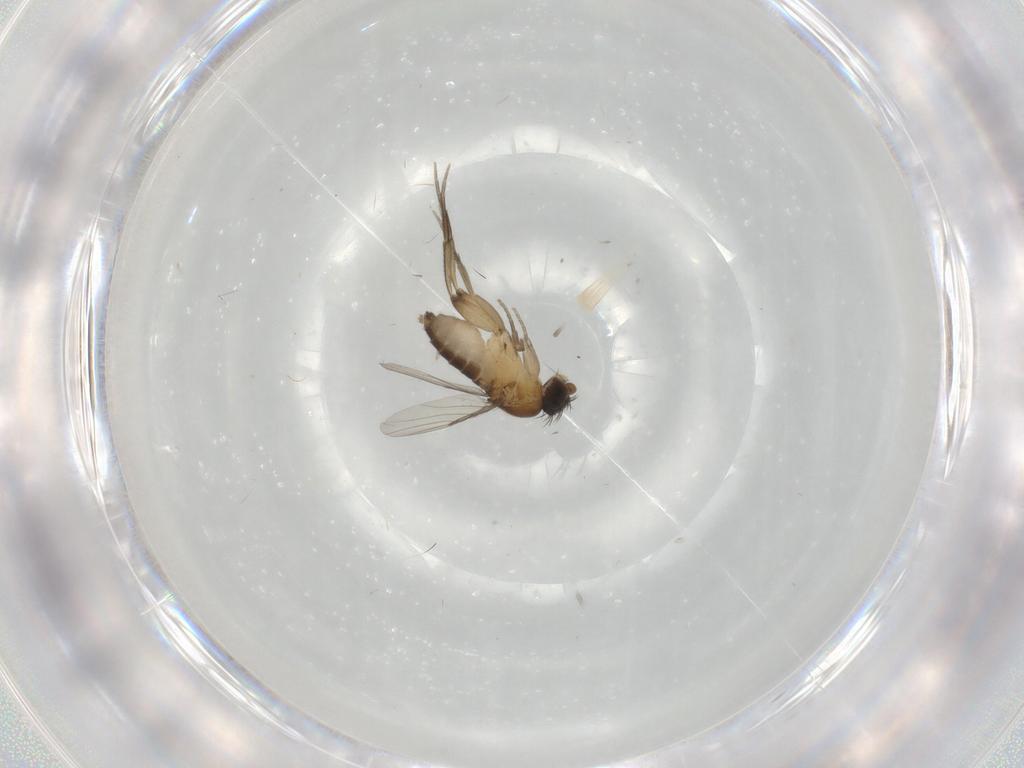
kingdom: Animalia
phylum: Arthropoda
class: Insecta
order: Diptera
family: Phoridae
